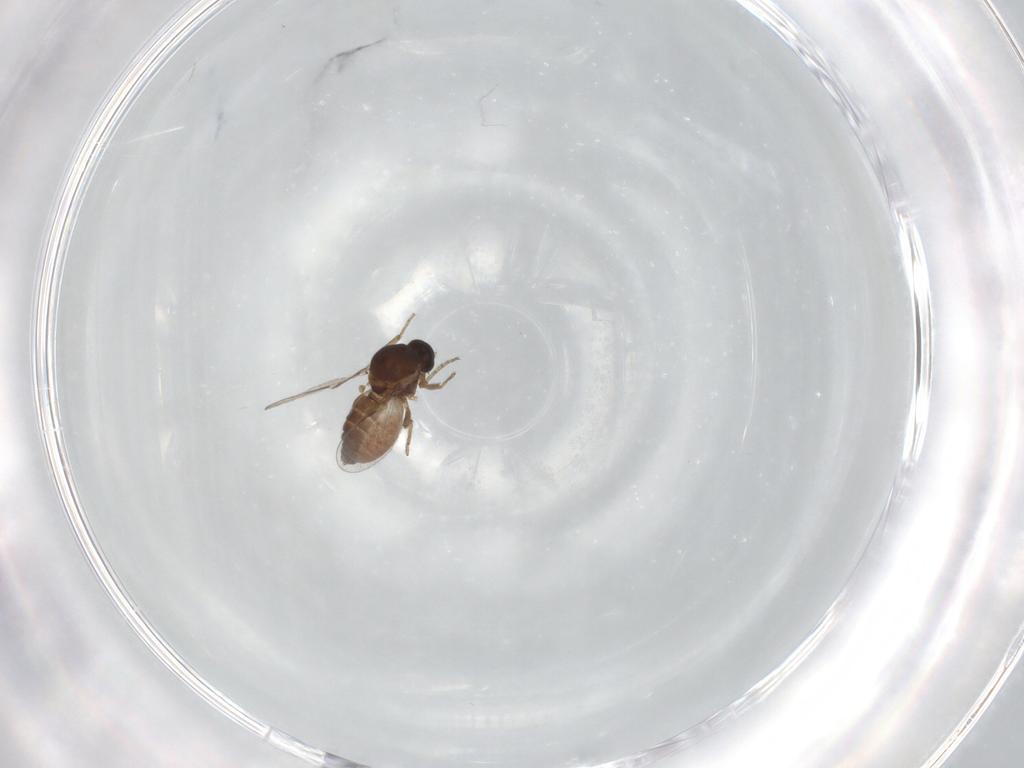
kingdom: Animalia
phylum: Arthropoda
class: Insecta
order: Diptera
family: Ceratopogonidae
